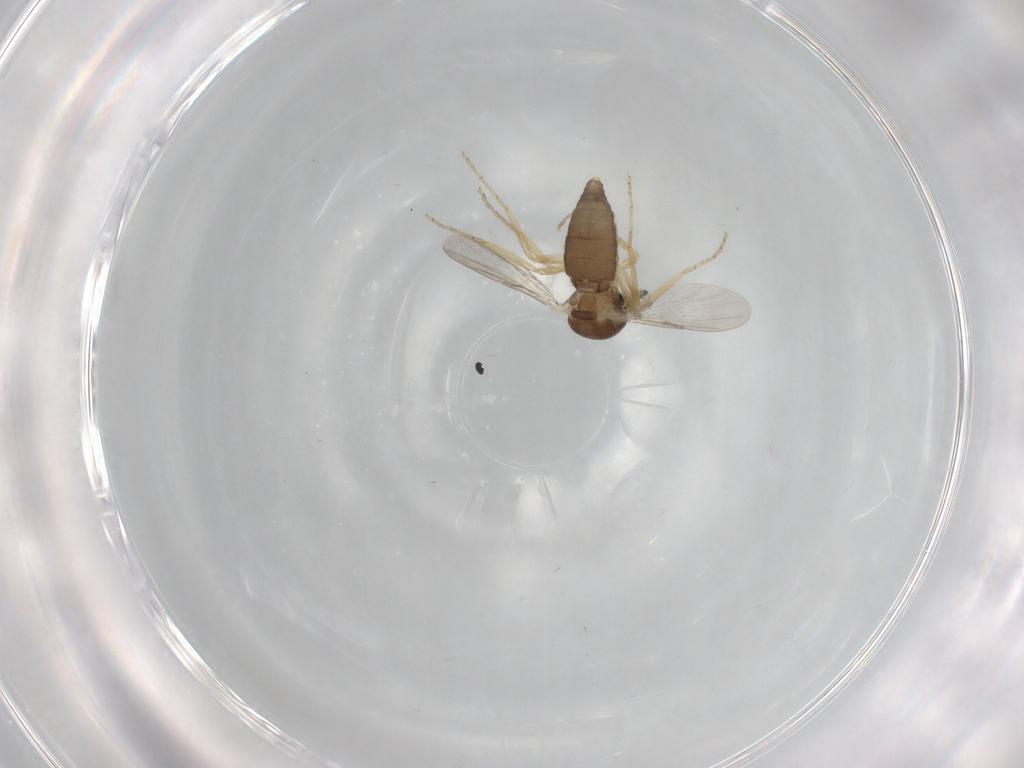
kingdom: Animalia
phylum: Arthropoda
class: Insecta
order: Diptera
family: Ceratopogonidae
